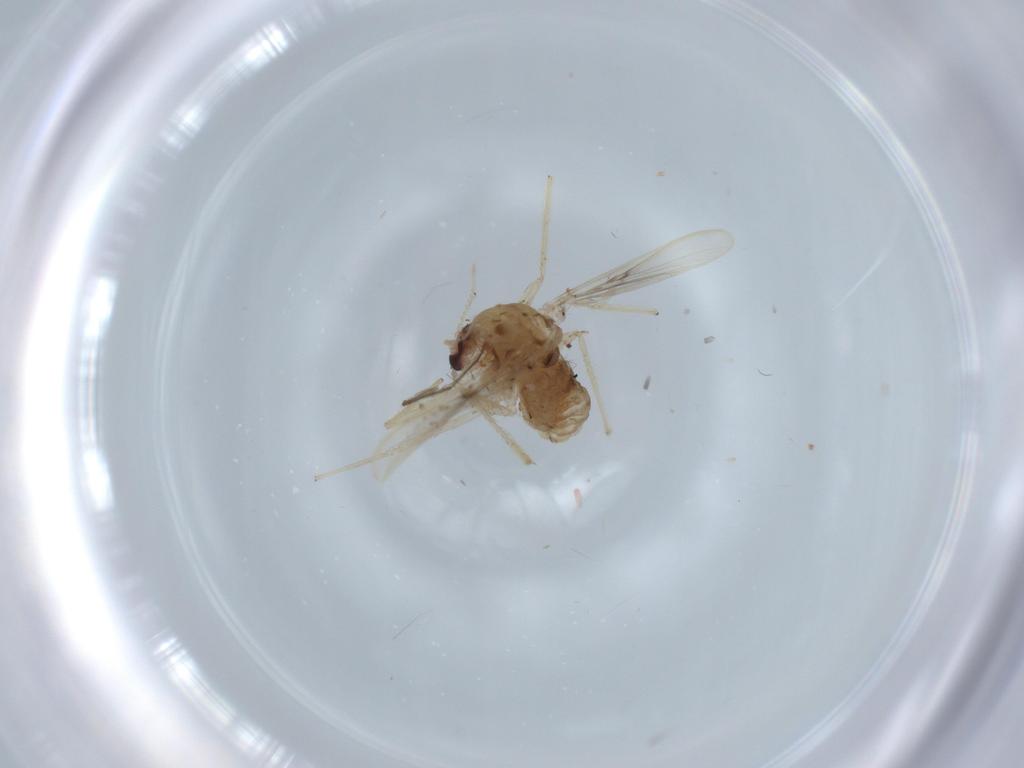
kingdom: Animalia
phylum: Arthropoda
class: Insecta
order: Diptera
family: Chironomidae
